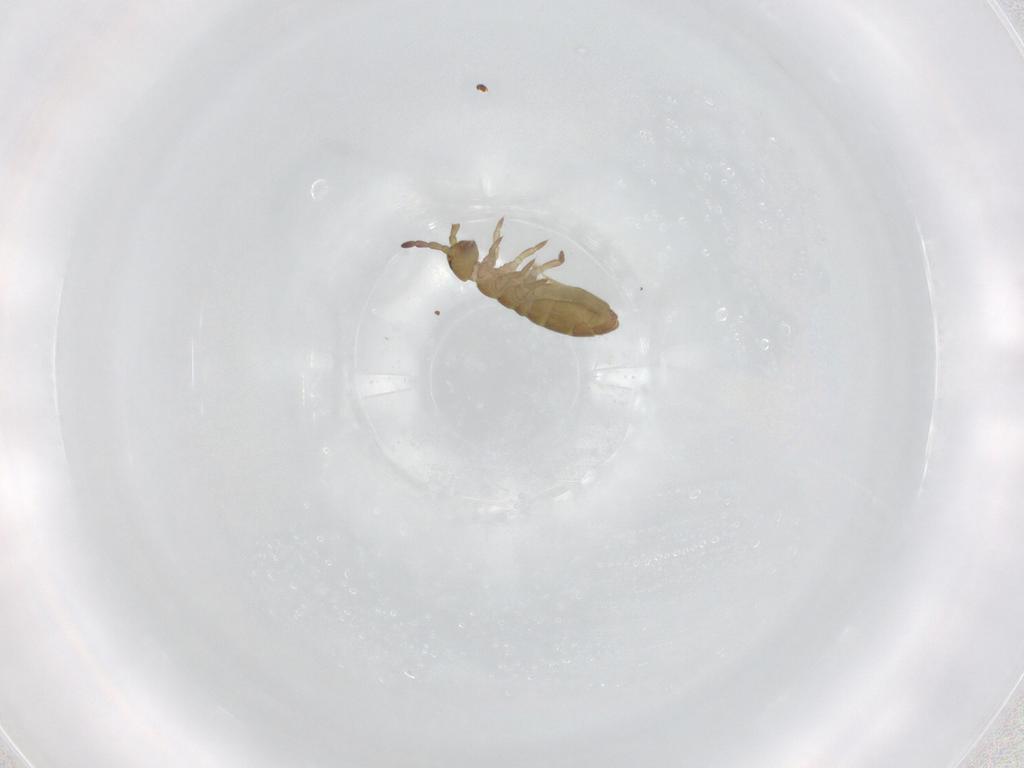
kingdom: Animalia
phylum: Arthropoda
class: Collembola
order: Entomobryomorpha
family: Isotomidae
